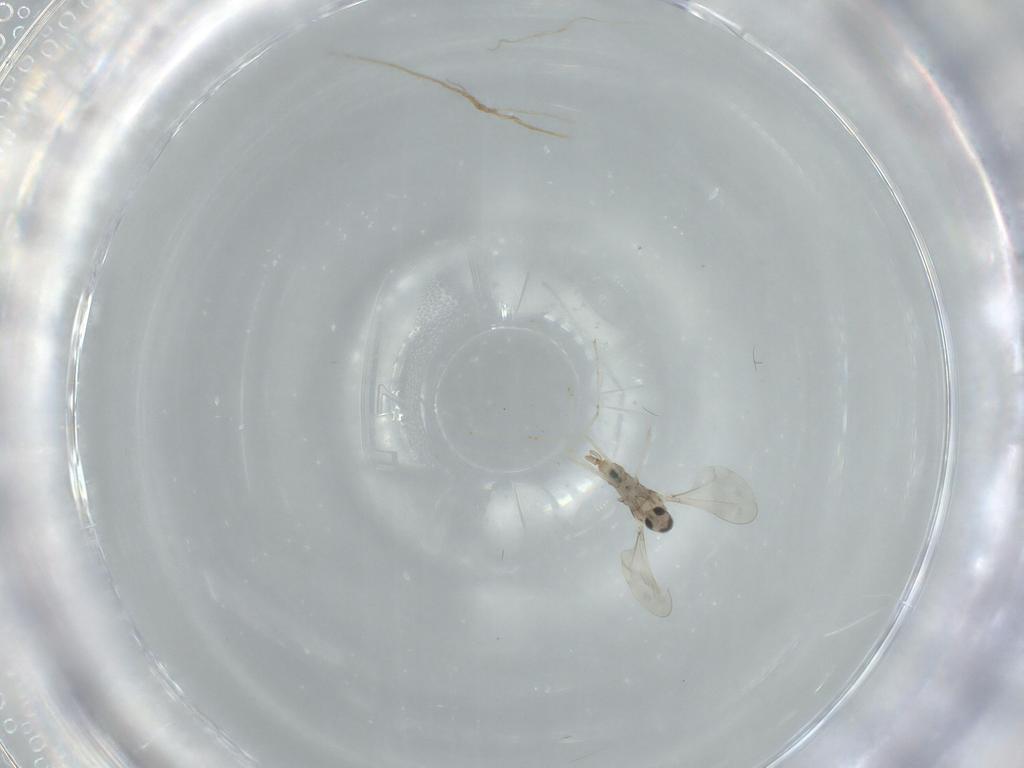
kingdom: Animalia
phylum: Arthropoda
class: Insecta
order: Diptera
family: Cecidomyiidae
